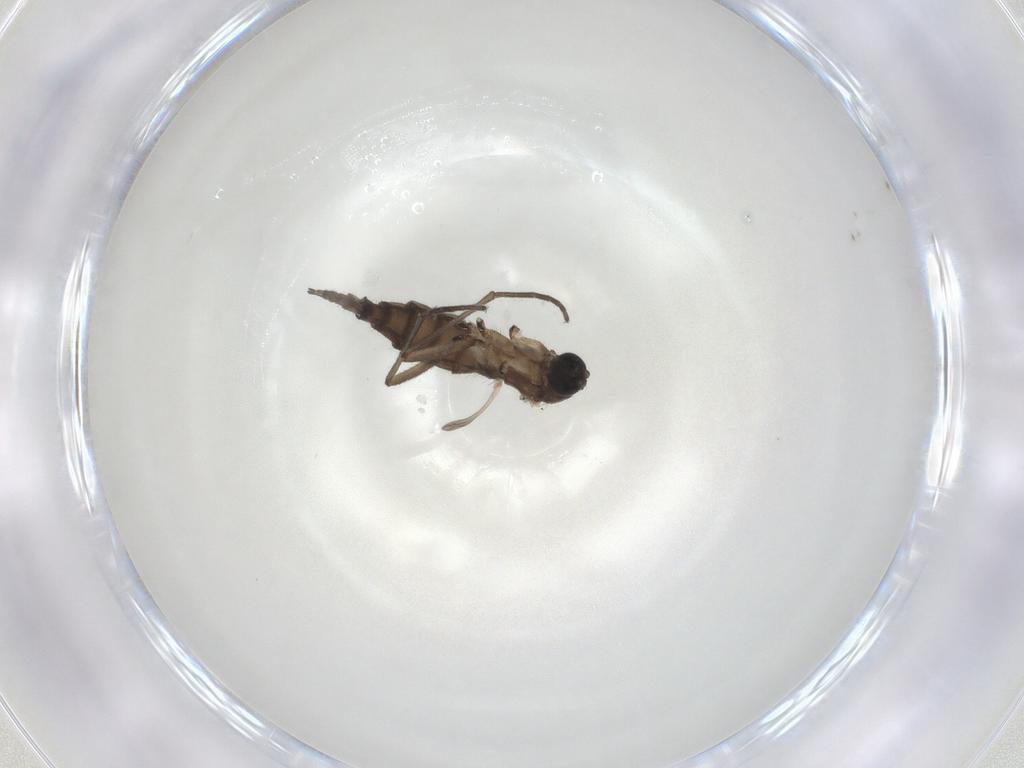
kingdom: Animalia
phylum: Arthropoda
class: Insecta
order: Diptera
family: Sciaridae
